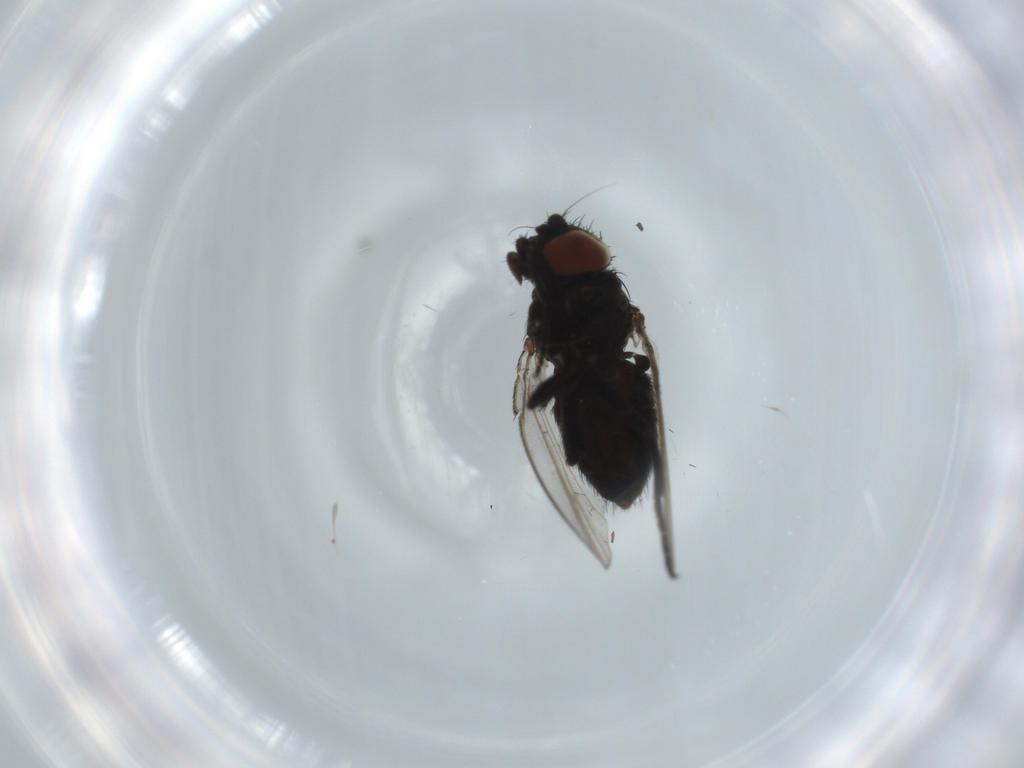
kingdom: Animalia
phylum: Arthropoda
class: Insecta
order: Diptera
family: Milichiidae
